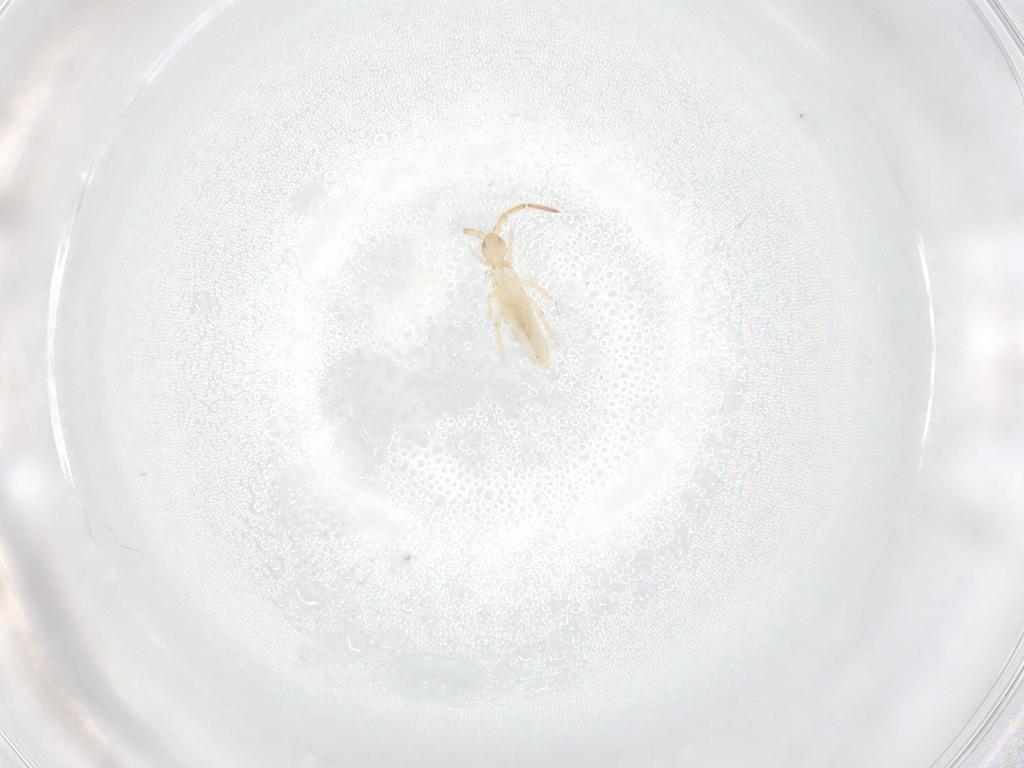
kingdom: Animalia
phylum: Arthropoda
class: Collembola
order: Entomobryomorpha
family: Entomobryidae
